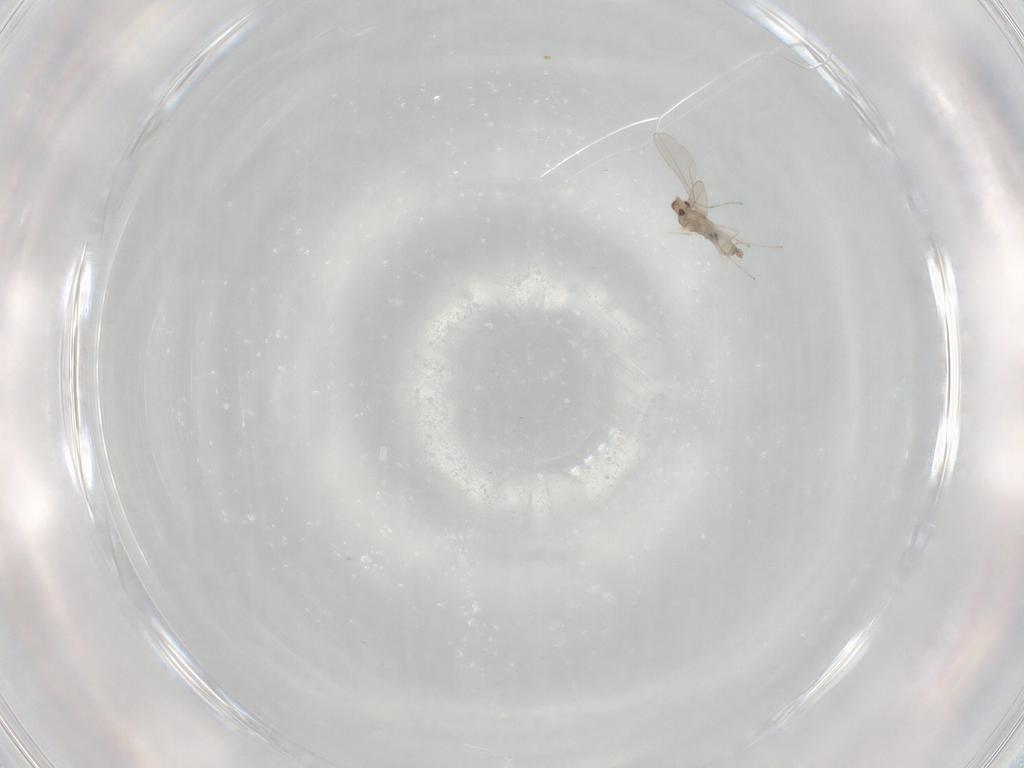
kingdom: Animalia
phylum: Arthropoda
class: Insecta
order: Diptera
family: Cecidomyiidae
